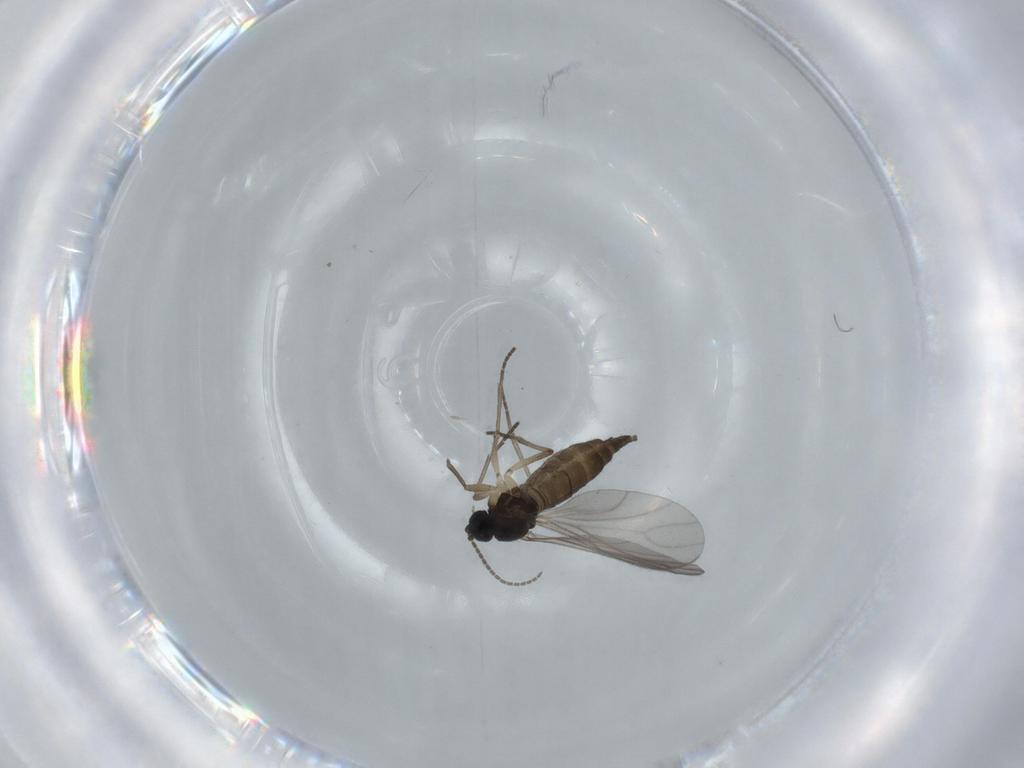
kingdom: Animalia
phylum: Arthropoda
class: Insecta
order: Diptera
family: Sciaridae
